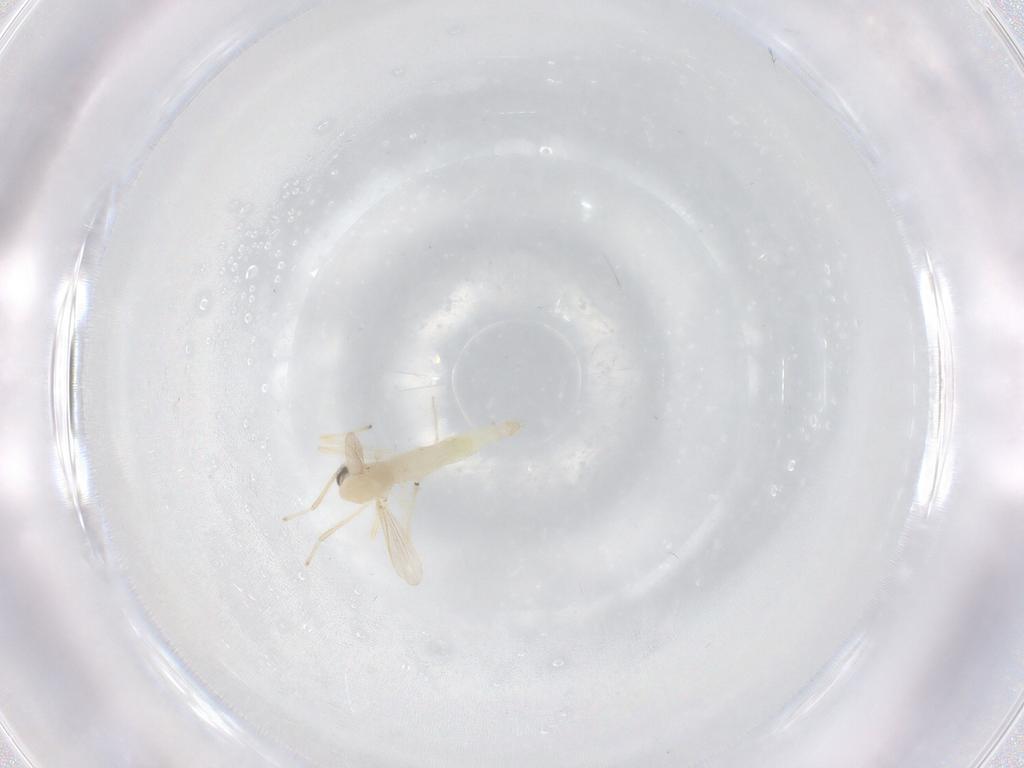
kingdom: Animalia
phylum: Arthropoda
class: Insecta
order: Diptera
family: Chironomidae
